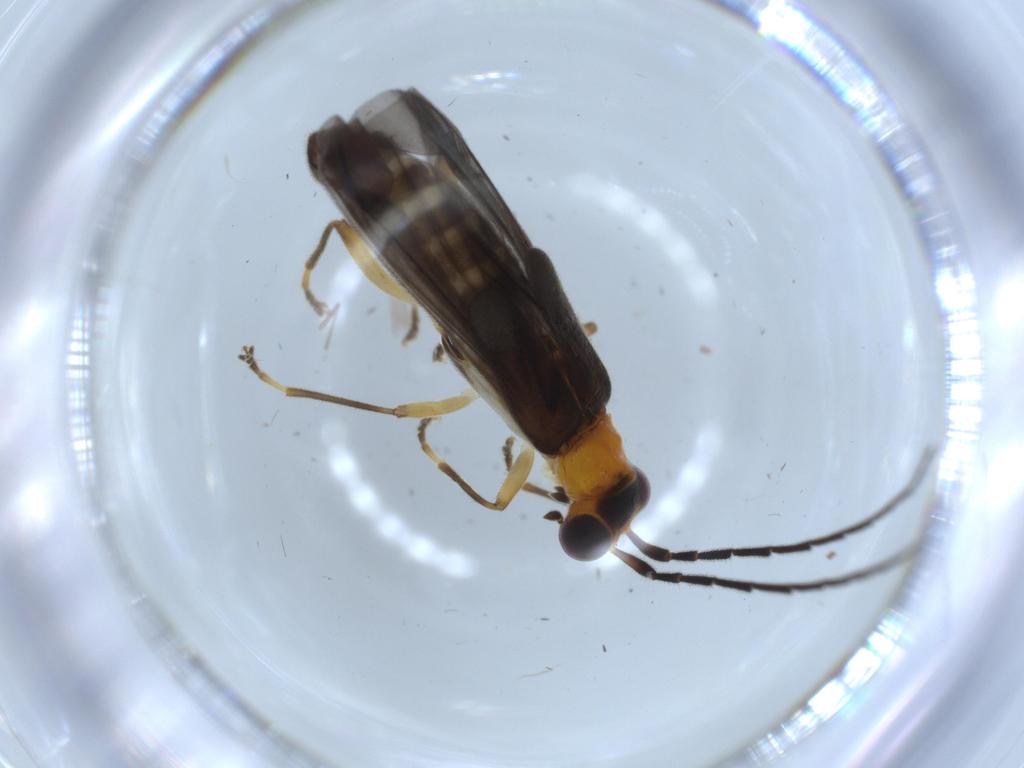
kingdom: Animalia
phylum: Arthropoda
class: Insecta
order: Coleoptera
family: Cantharidae
